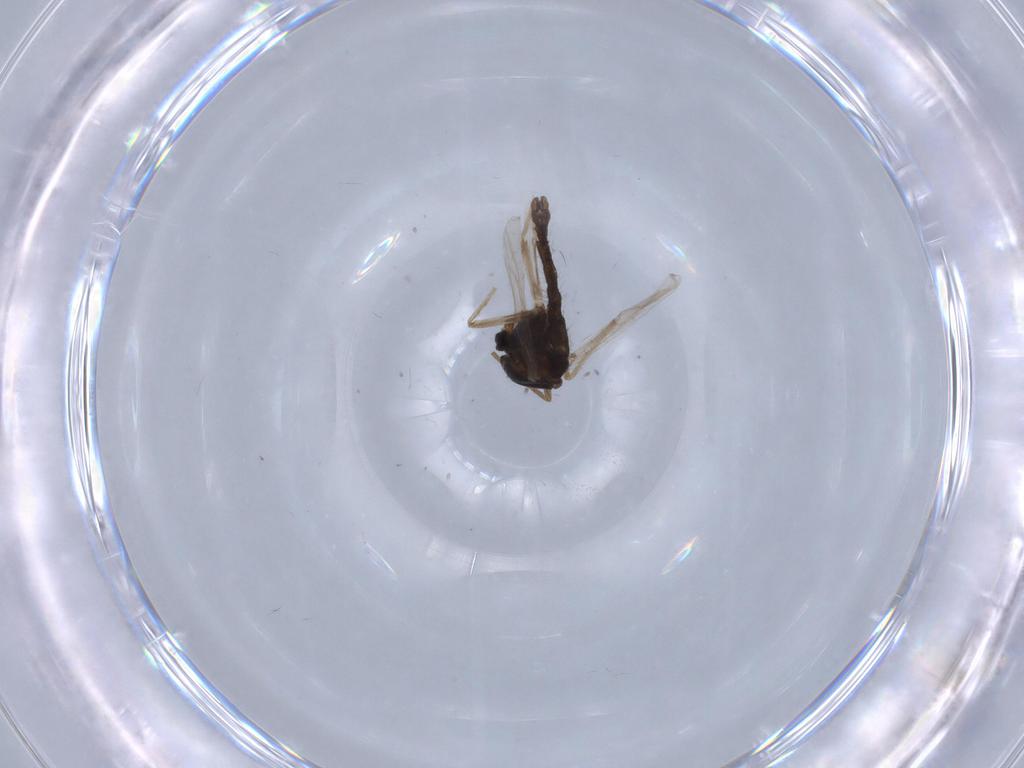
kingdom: Animalia
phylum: Arthropoda
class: Insecta
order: Diptera
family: Chironomidae
